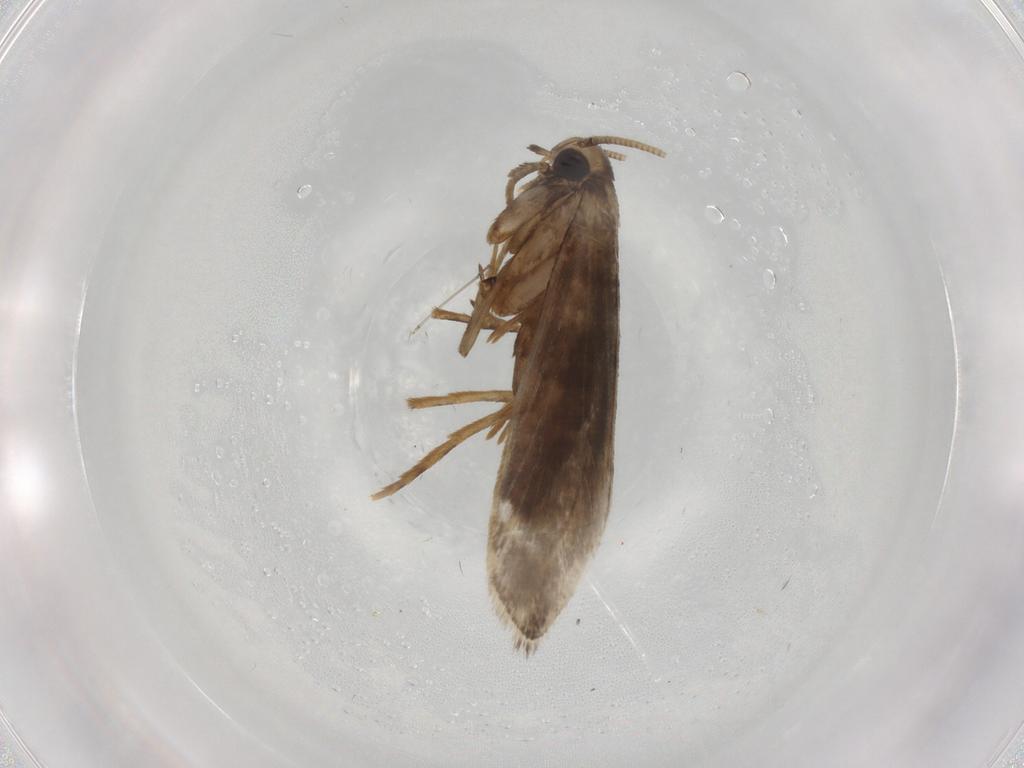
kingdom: Animalia
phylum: Arthropoda
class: Insecta
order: Lepidoptera
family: Tineidae
